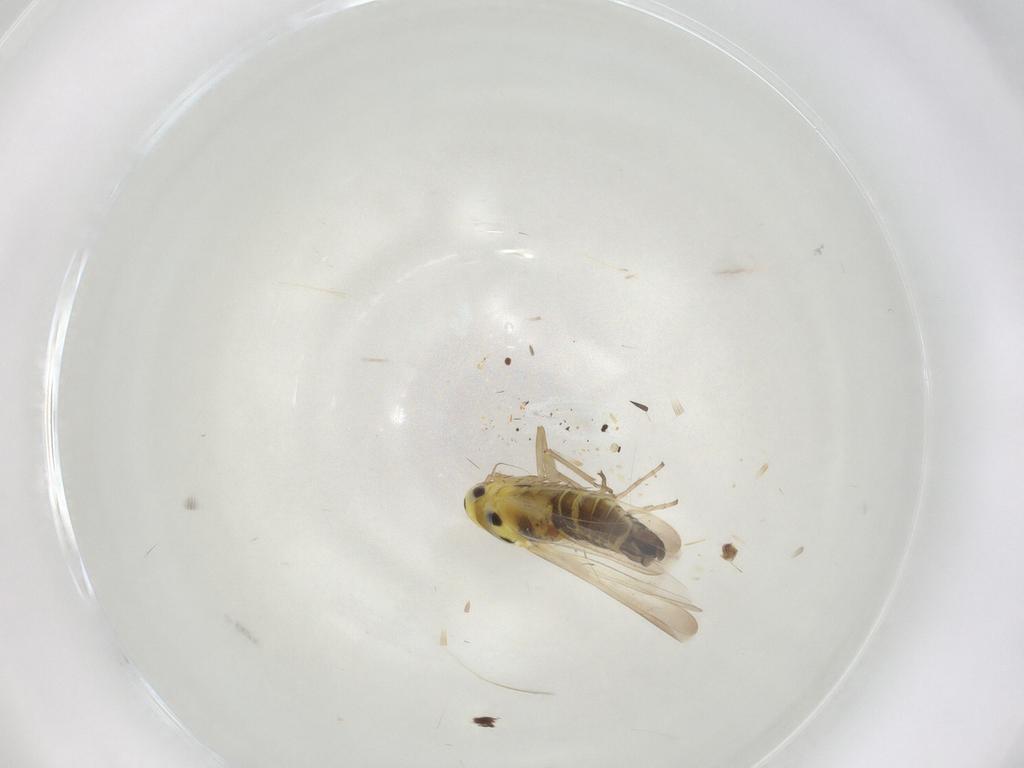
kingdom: Animalia
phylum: Arthropoda
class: Insecta
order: Hemiptera
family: Cicadellidae
